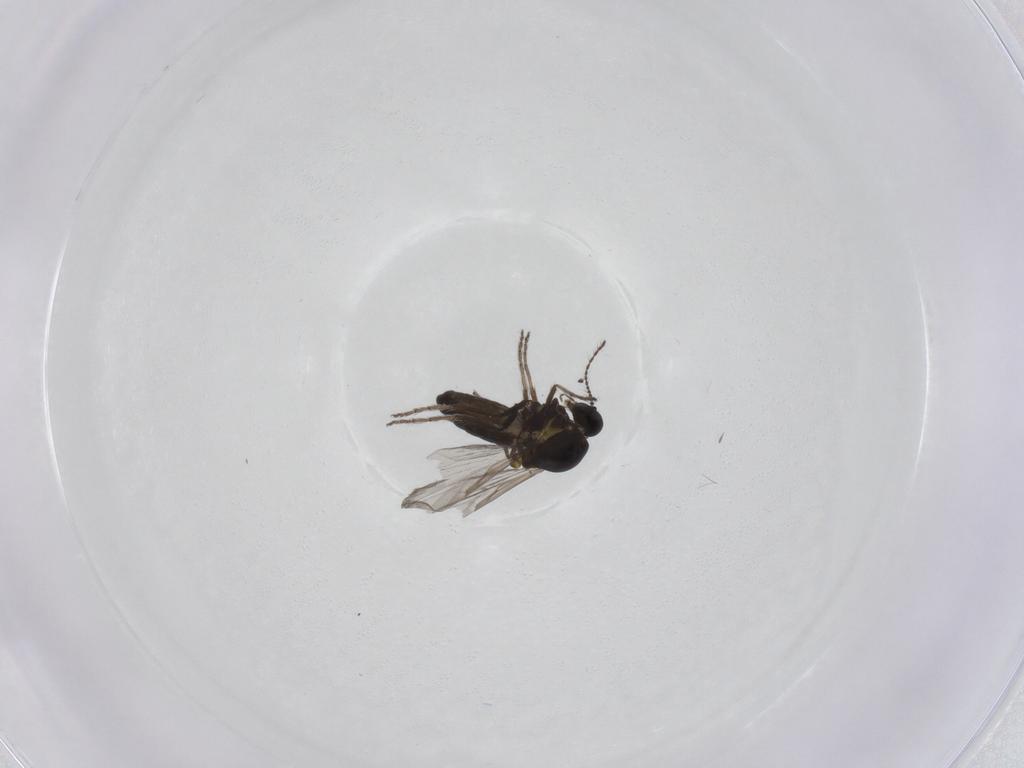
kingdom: Animalia
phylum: Arthropoda
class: Insecta
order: Diptera
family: Ceratopogonidae
